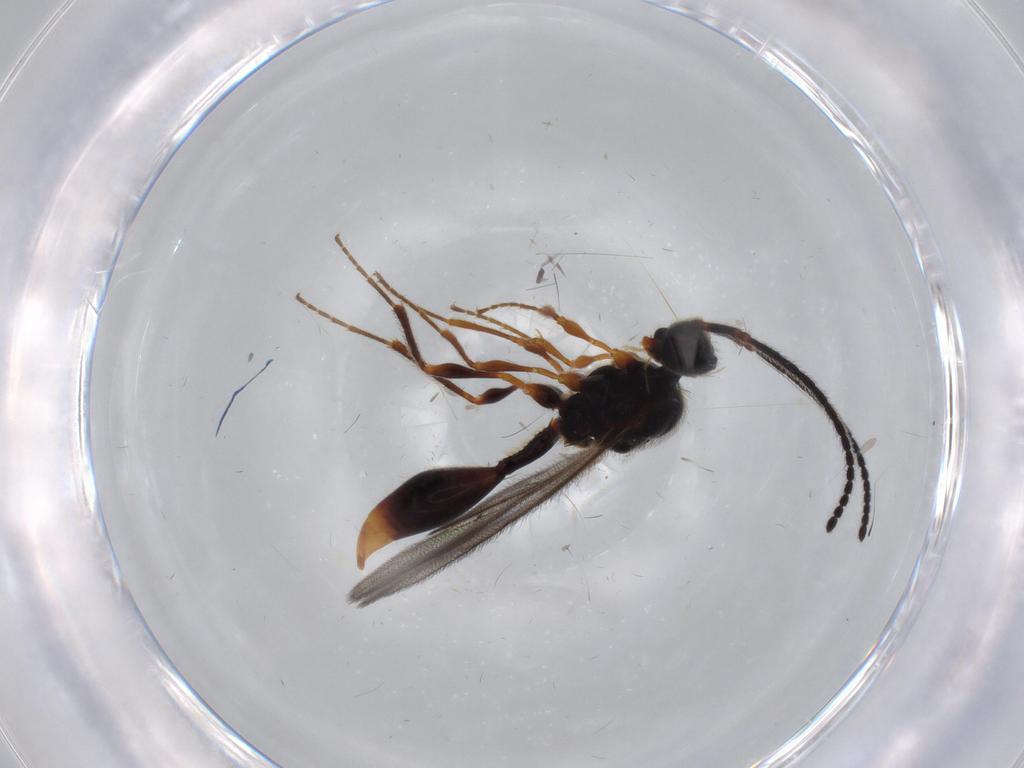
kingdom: Animalia
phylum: Arthropoda
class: Insecta
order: Hymenoptera
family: Diapriidae
